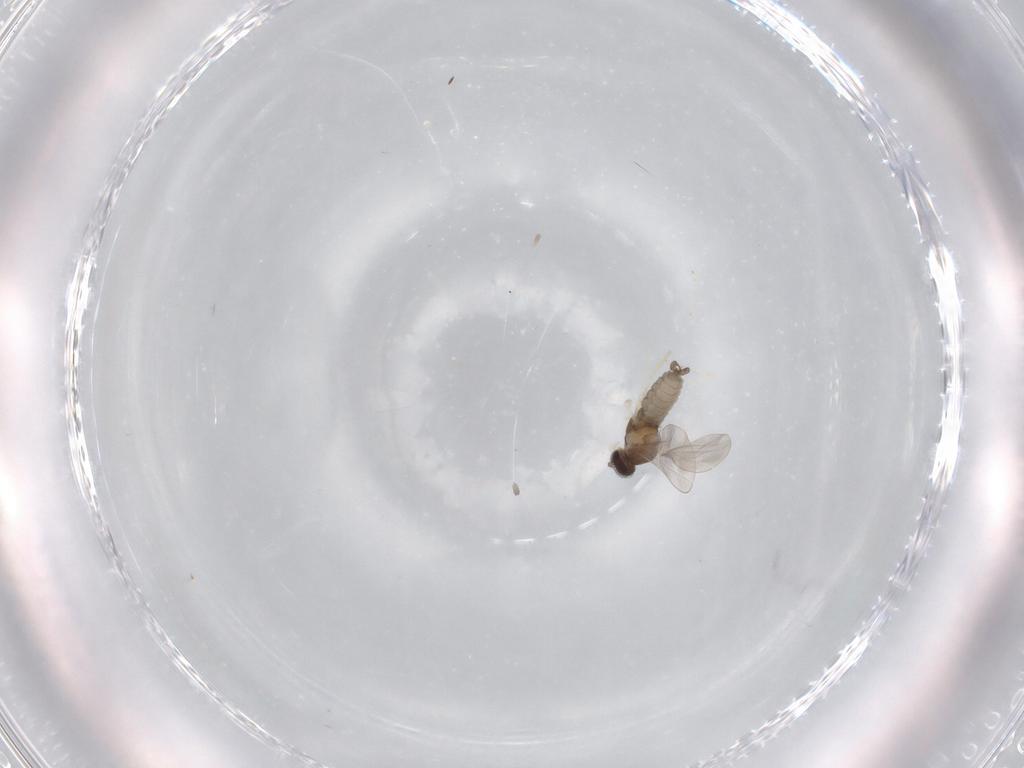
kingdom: Animalia
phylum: Arthropoda
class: Insecta
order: Diptera
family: Cecidomyiidae
